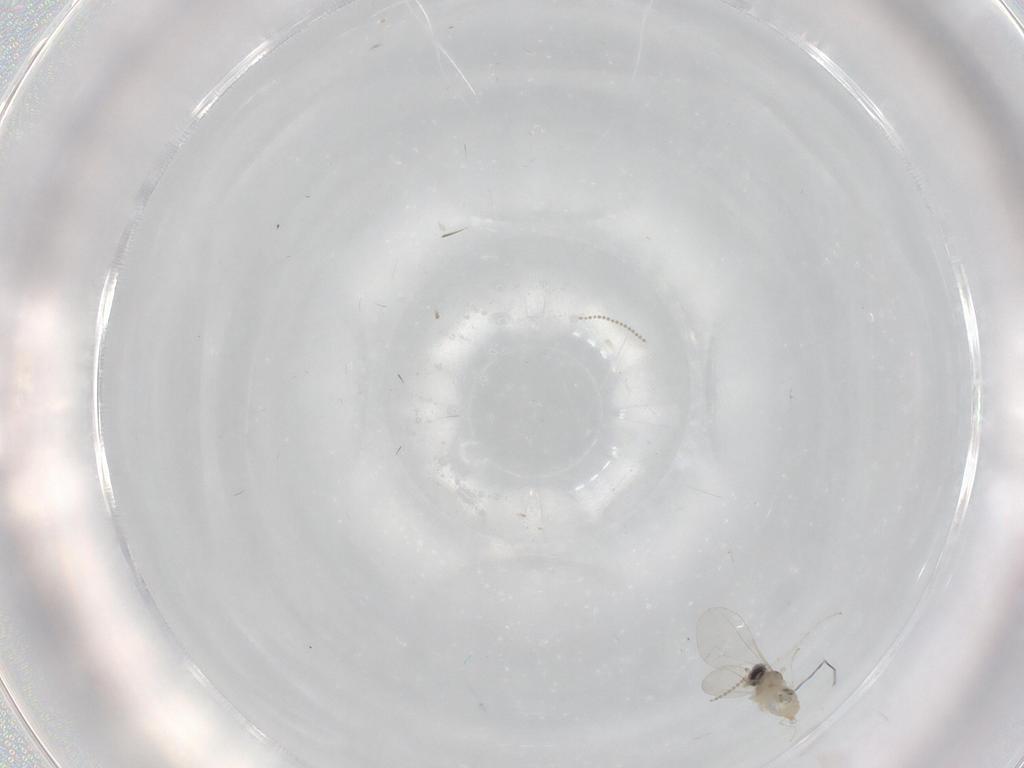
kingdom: Animalia
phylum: Arthropoda
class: Insecta
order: Diptera
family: Cecidomyiidae
